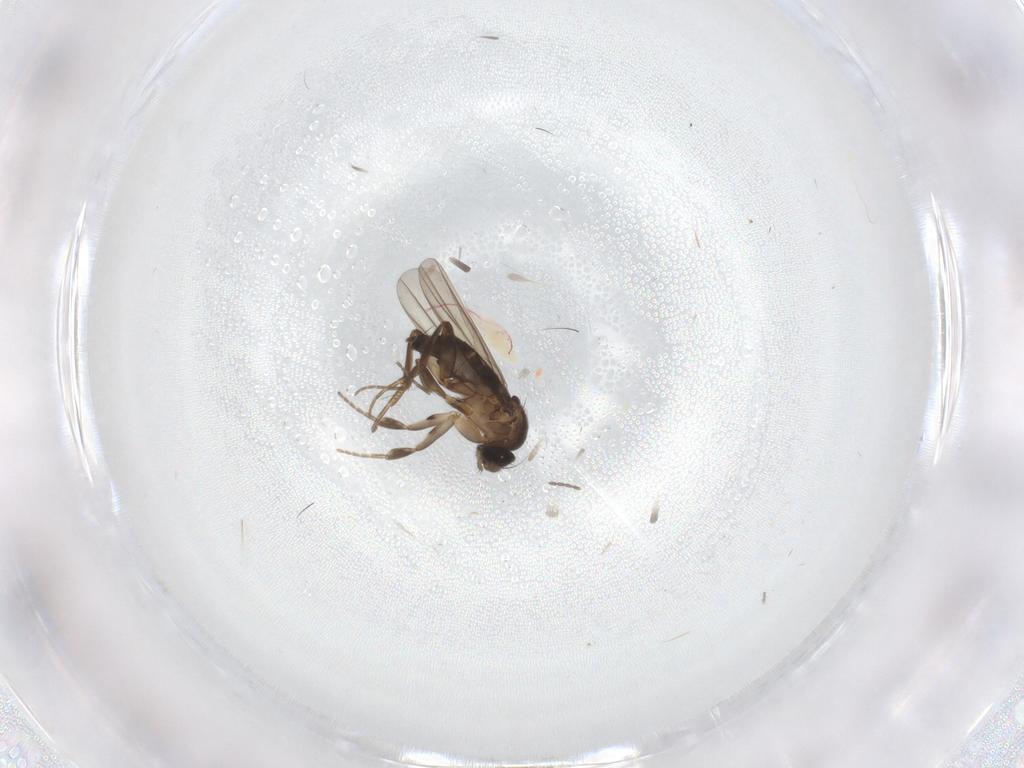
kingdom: Animalia
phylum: Arthropoda
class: Insecta
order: Diptera
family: Phoridae
